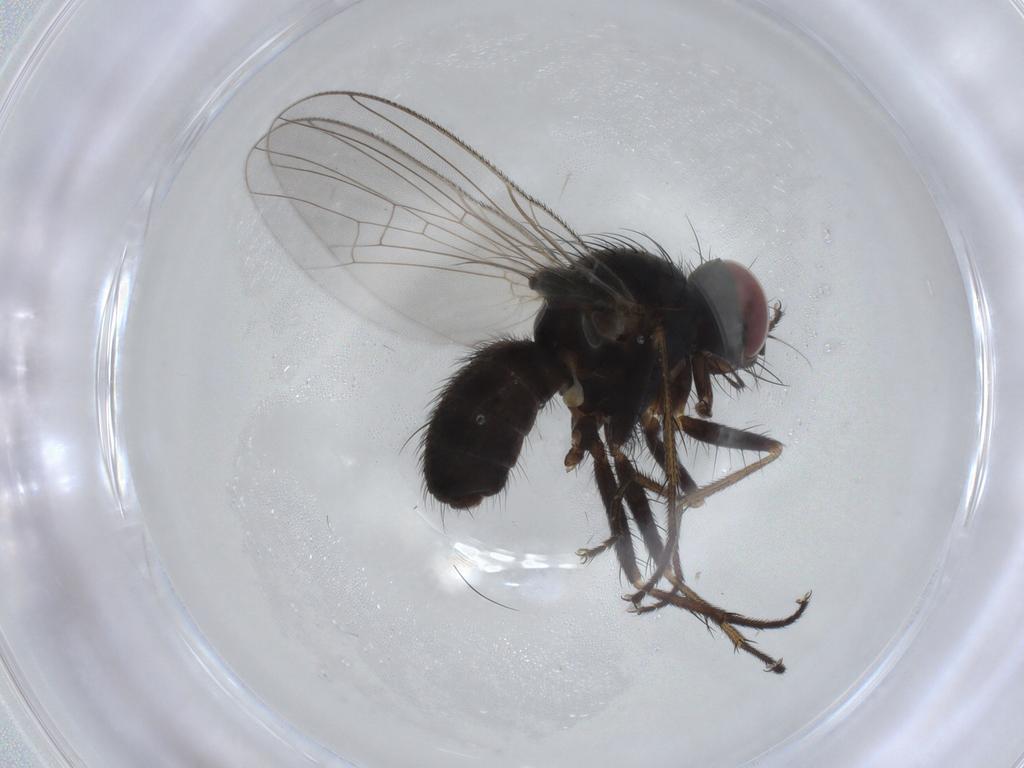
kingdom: Animalia
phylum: Arthropoda
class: Insecta
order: Diptera
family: Muscidae
